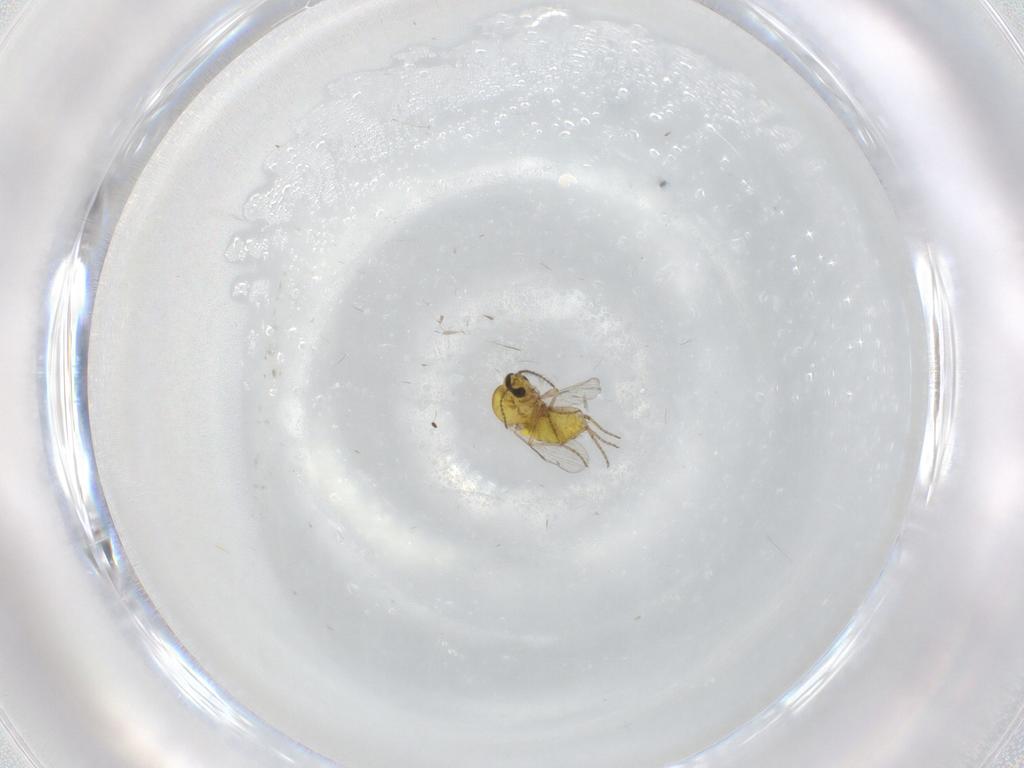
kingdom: Animalia
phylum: Arthropoda
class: Insecta
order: Diptera
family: Ceratopogonidae
